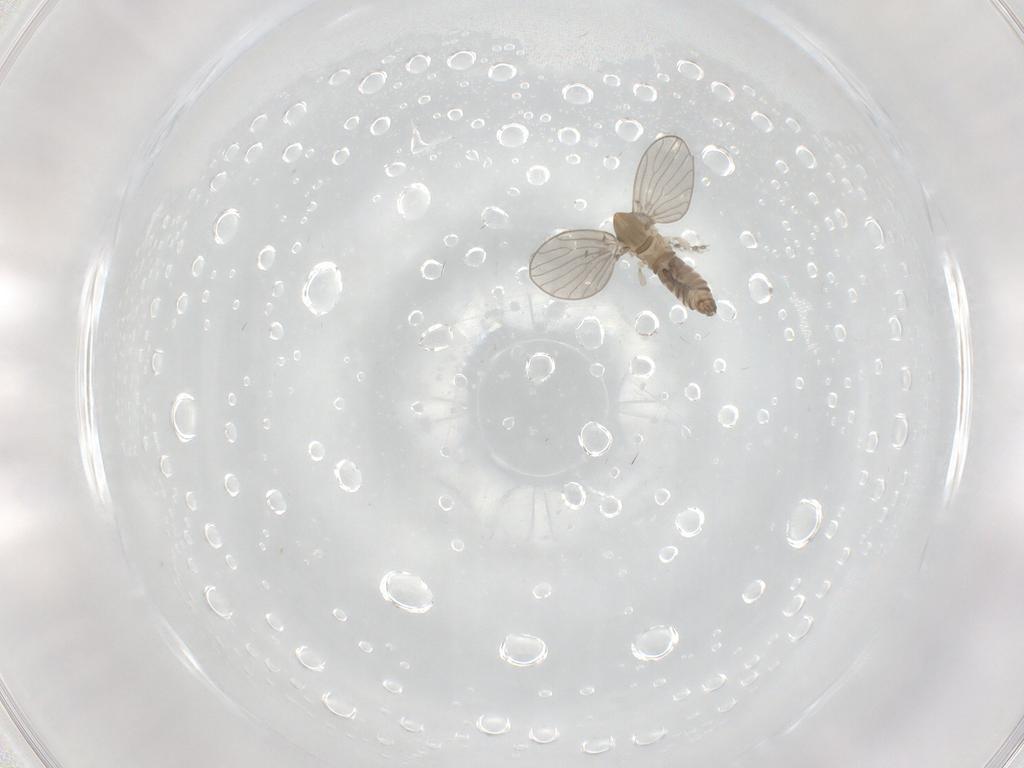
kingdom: Animalia
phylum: Arthropoda
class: Insecta
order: Diptera
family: Psychodidae
